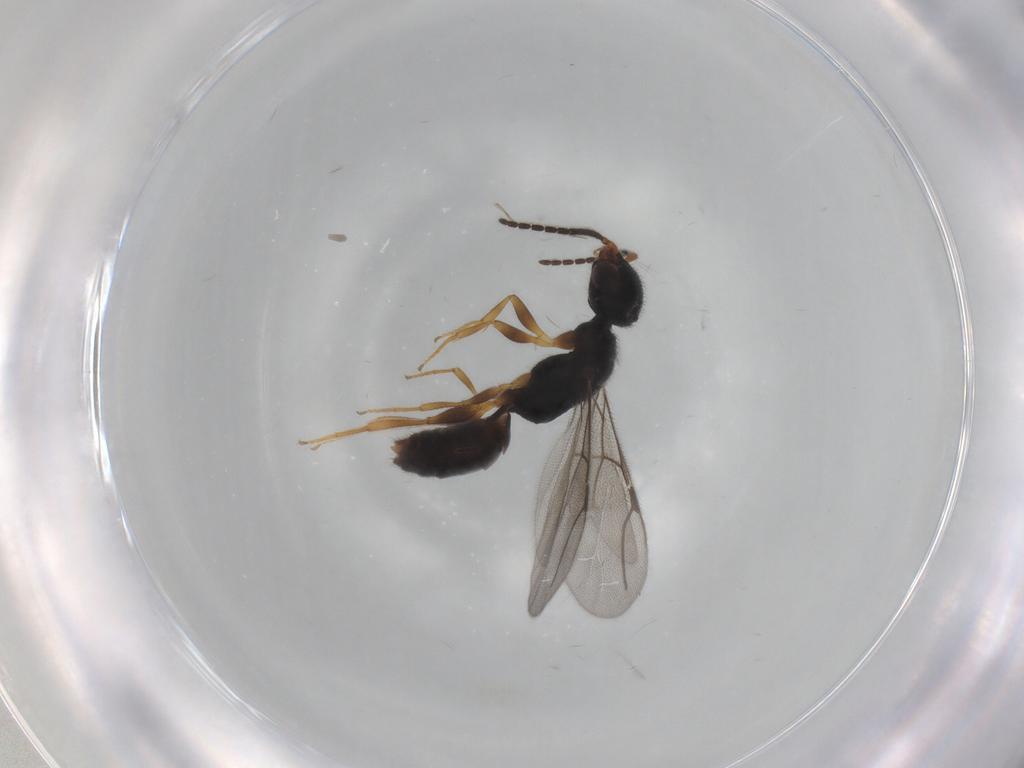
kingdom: Animalia
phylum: Arthropoda
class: Insecta
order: Hymenoptera
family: Bethylidae
